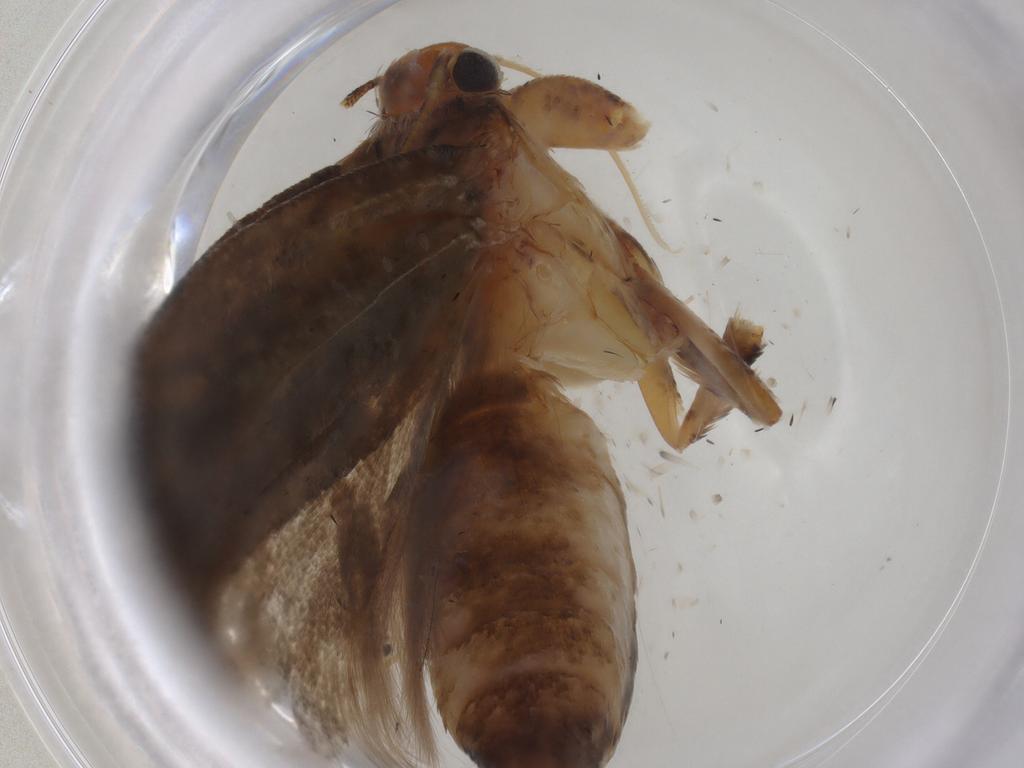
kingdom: Animalia
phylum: Arthropoda
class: Insecta
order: Lepidoptera
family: Gelechiidae
